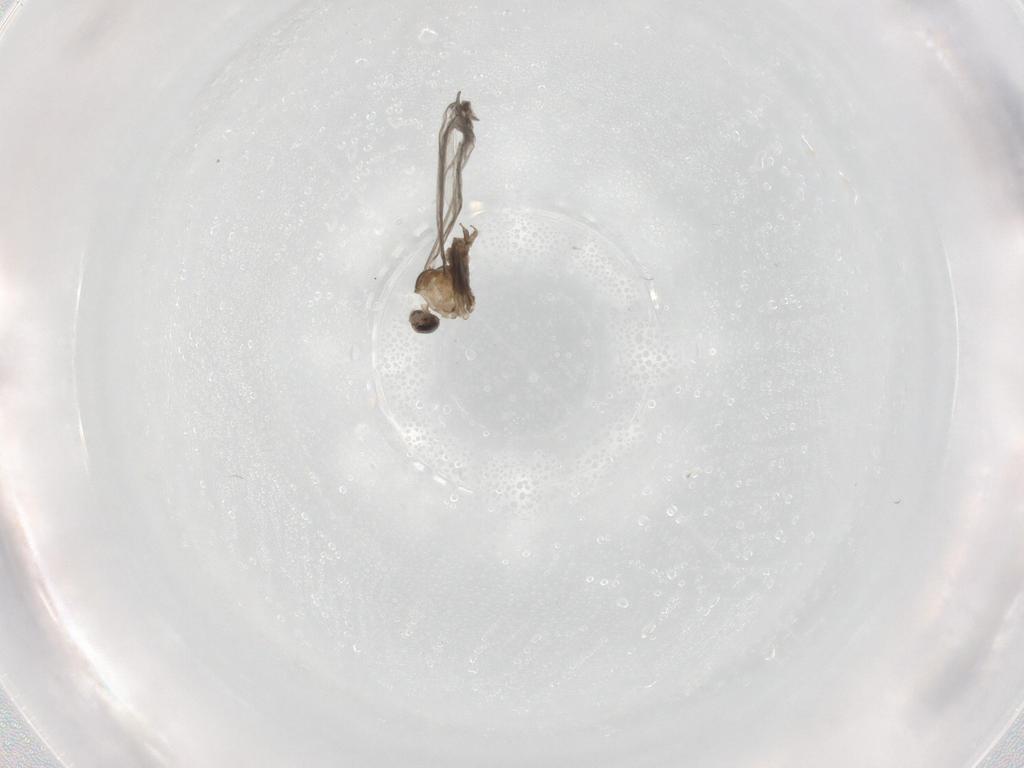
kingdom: Animalia
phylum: Arthropoda
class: Insecta
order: Diptera
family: Cecidomyiidae
